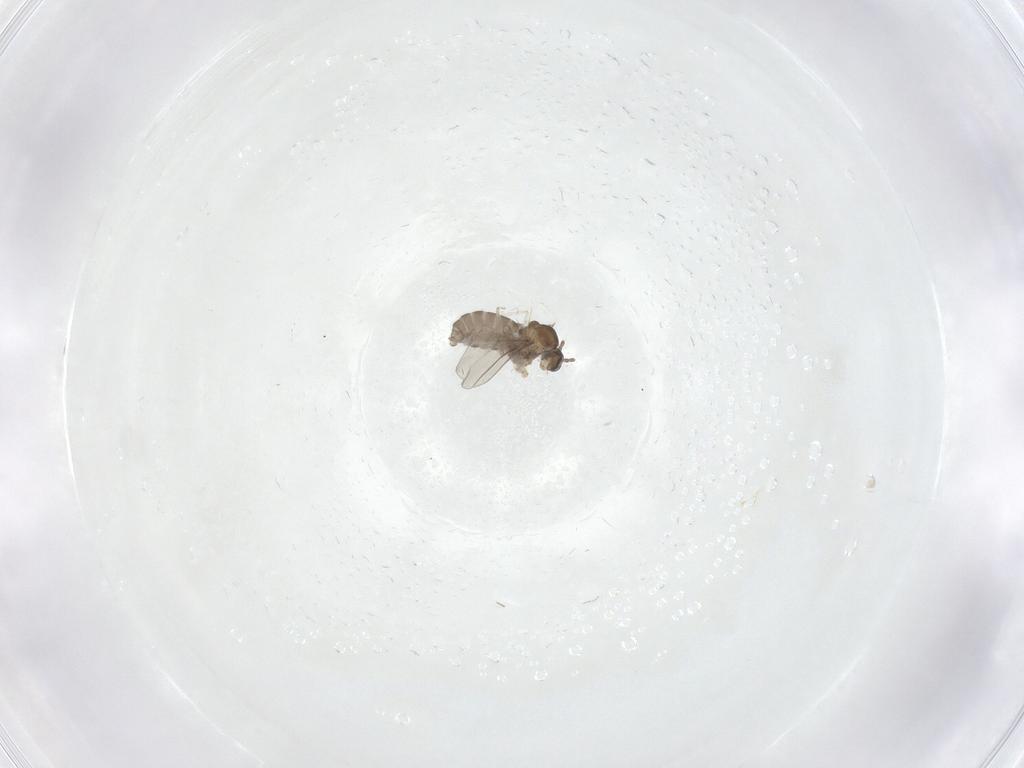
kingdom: Animalia
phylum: Arthropoda
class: Insecta
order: Diptera
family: Cecidomyiidae
